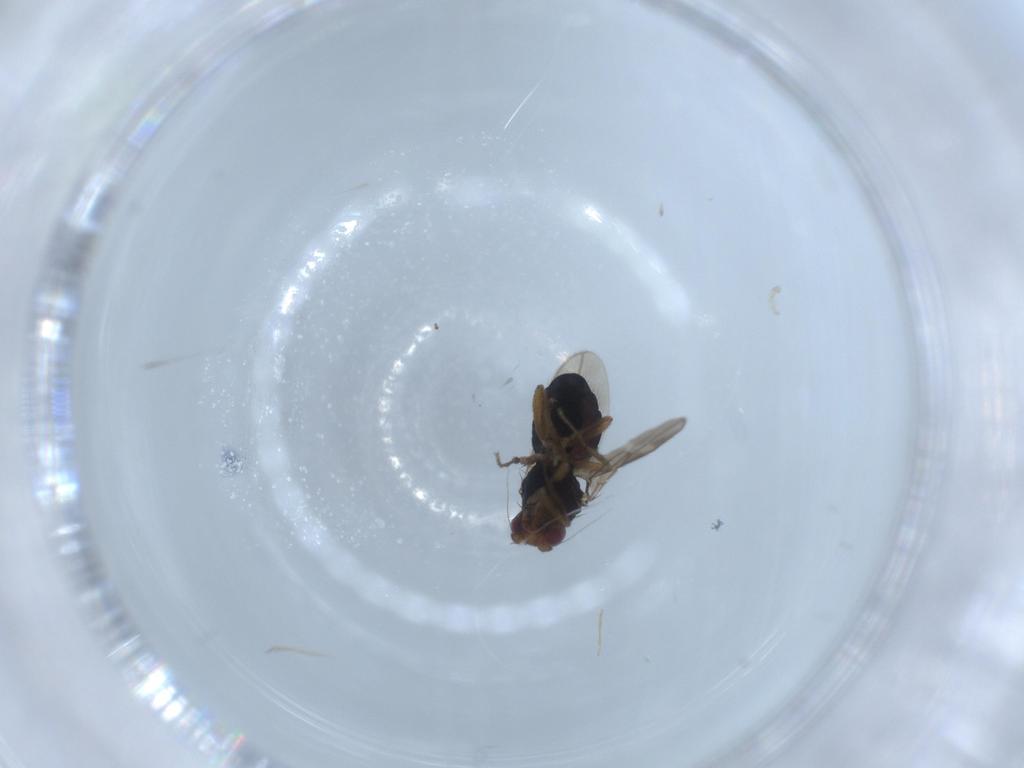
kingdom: Animalia
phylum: Arthropoda
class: Insecta
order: Diptera
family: Sphaeroceridae
